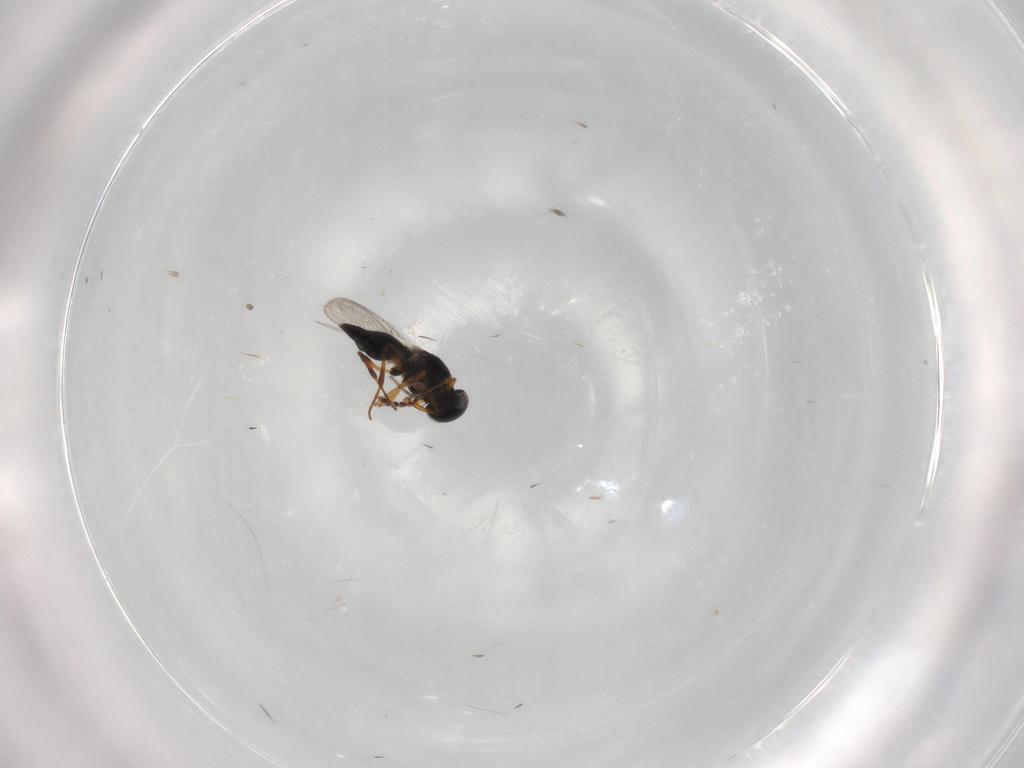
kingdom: Animalia
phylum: Arthropoda
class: Insecta
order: Hymenoptera
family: Platygastridae
